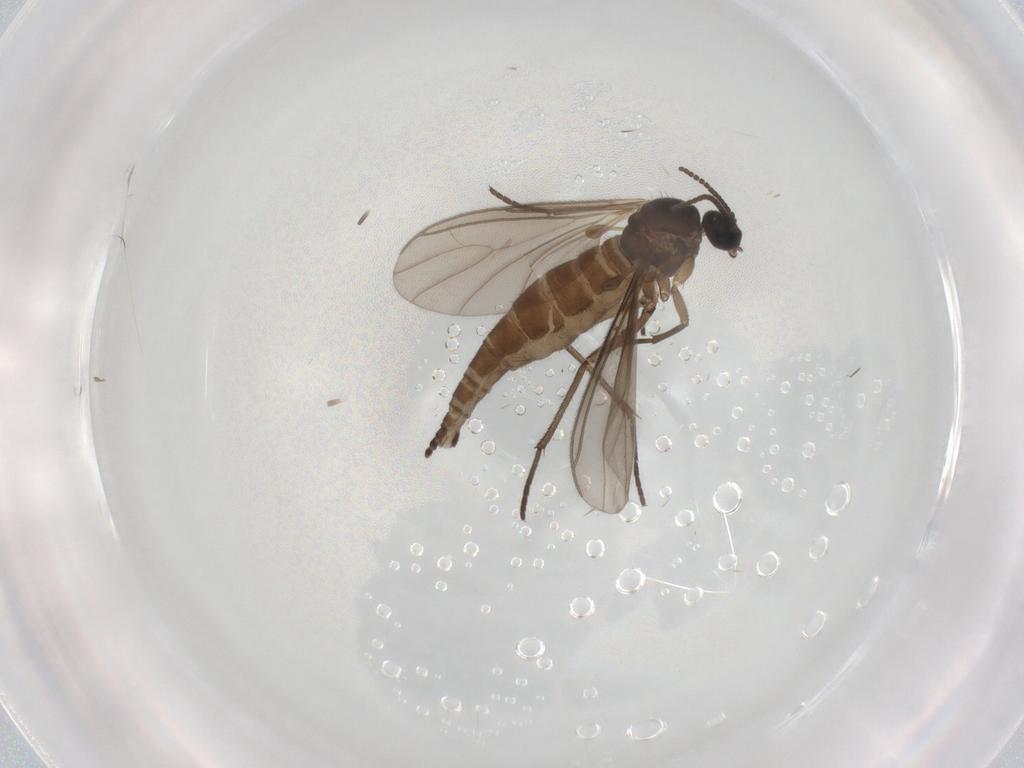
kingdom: Animalia
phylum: Arthropoda
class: Insecta
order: Diptera
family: Sciaridae
